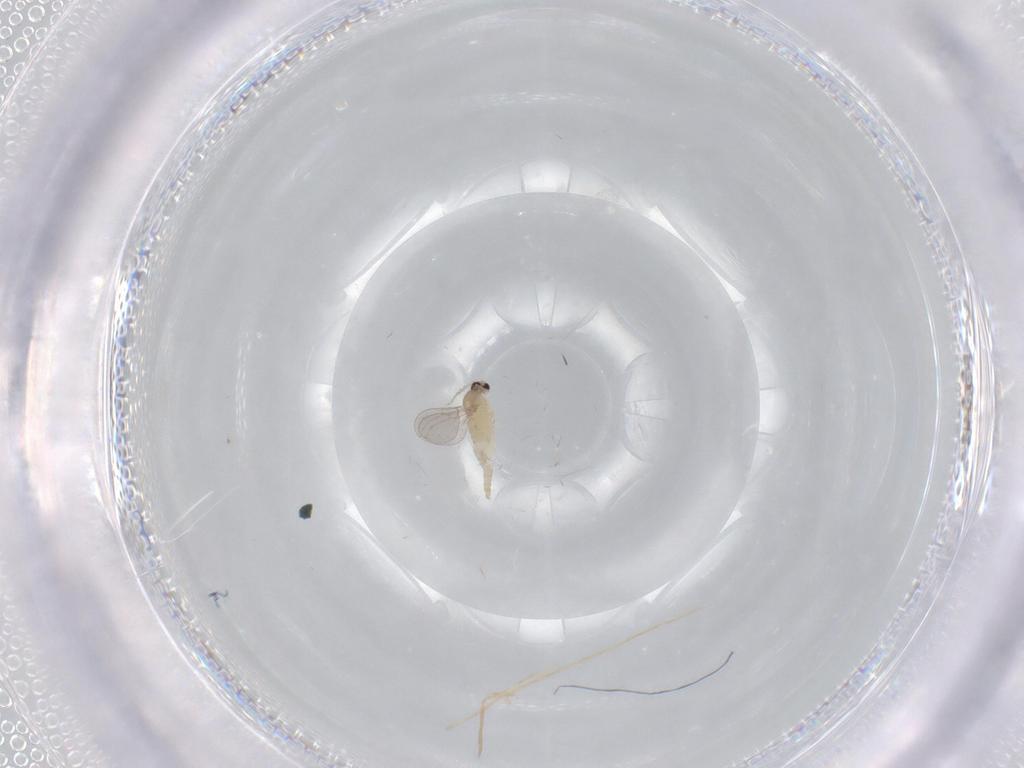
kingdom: Animalia
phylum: Arthropoda
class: Insecta
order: Diptera
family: Cecidomyiidae
